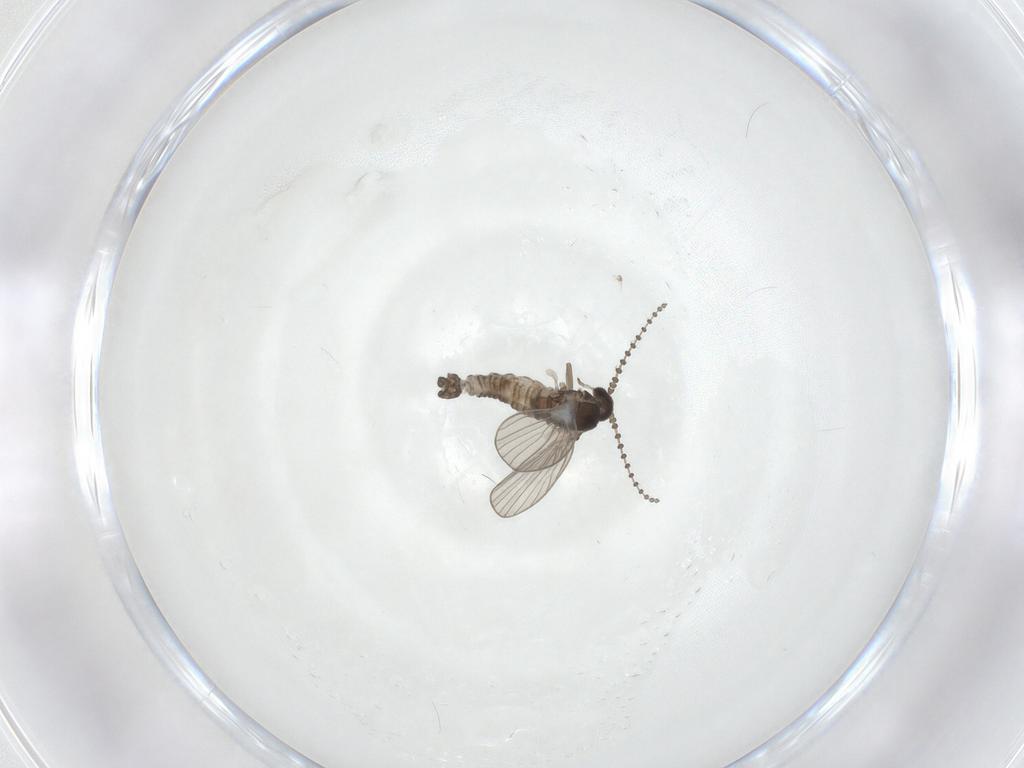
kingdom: Animalia
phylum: Arthropoda
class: Insecta
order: Diptera
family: Psychodidae
